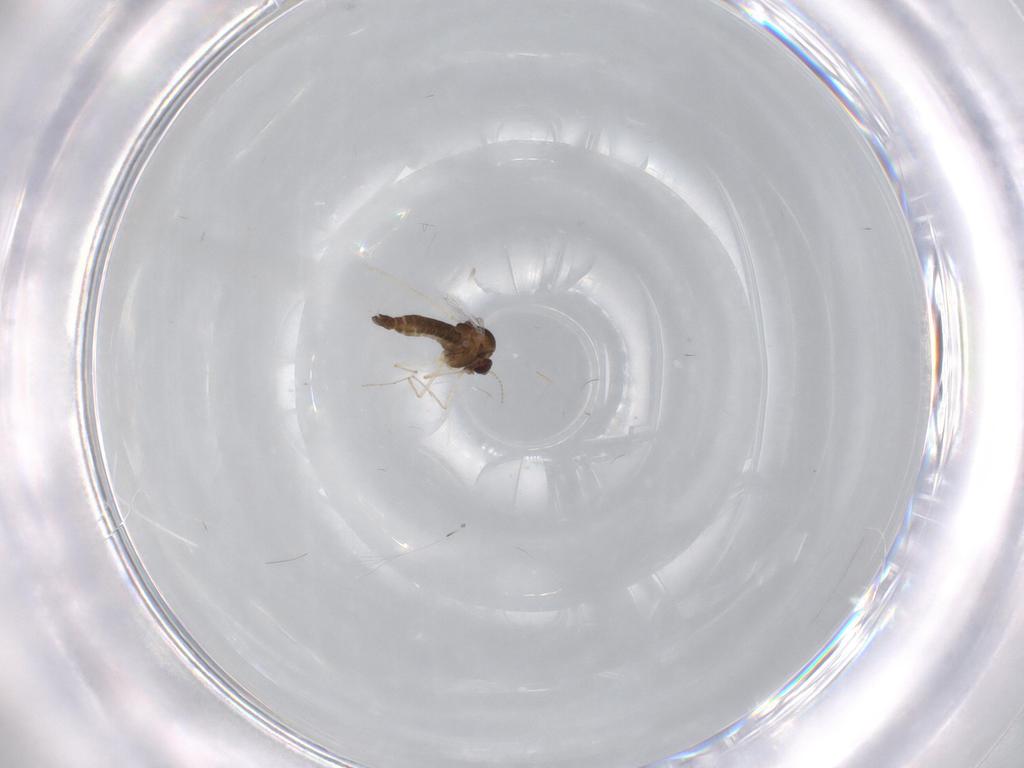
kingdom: Animalia
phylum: Arthropoda
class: Insecta
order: Diptera
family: Chironomidae
